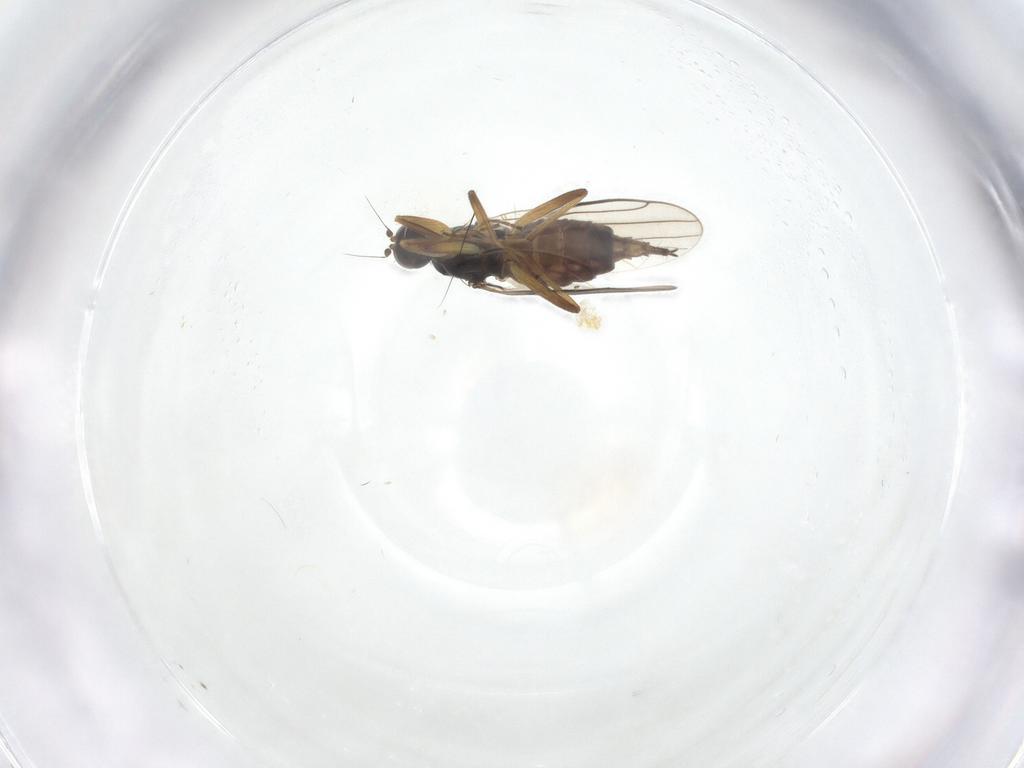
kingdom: Animalia
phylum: Arthropoda
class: Insecta
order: Diptera
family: Hybotidae
